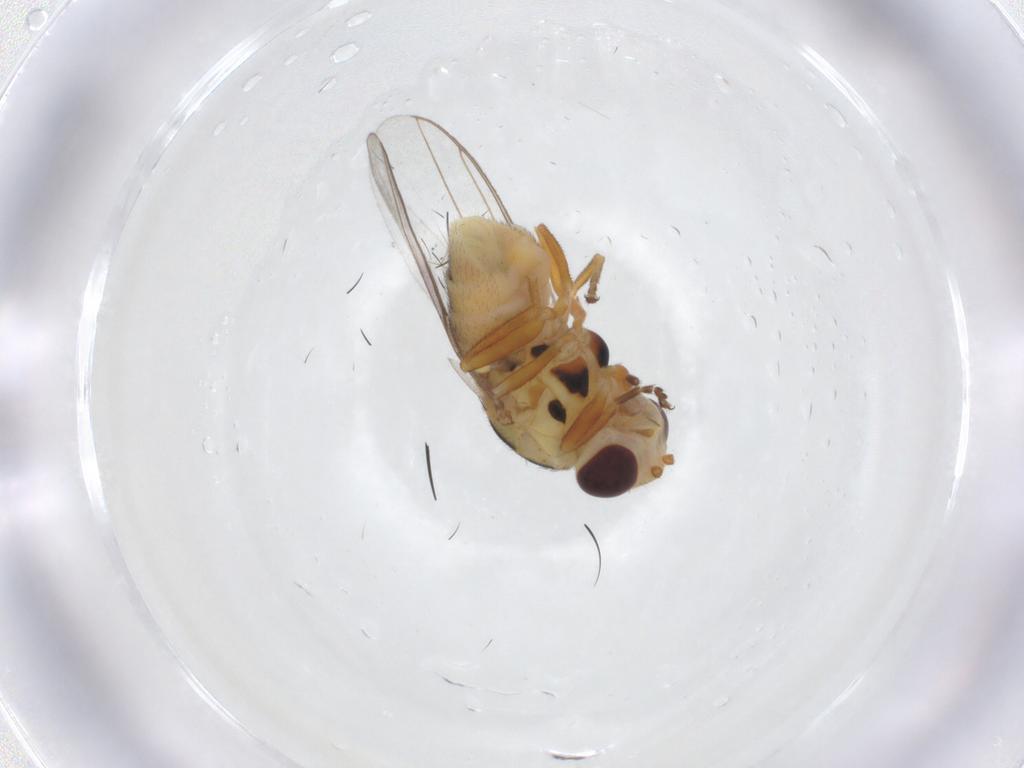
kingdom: Animalia
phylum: Arthropoda
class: Insecta
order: Diptera
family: Chloropidae
